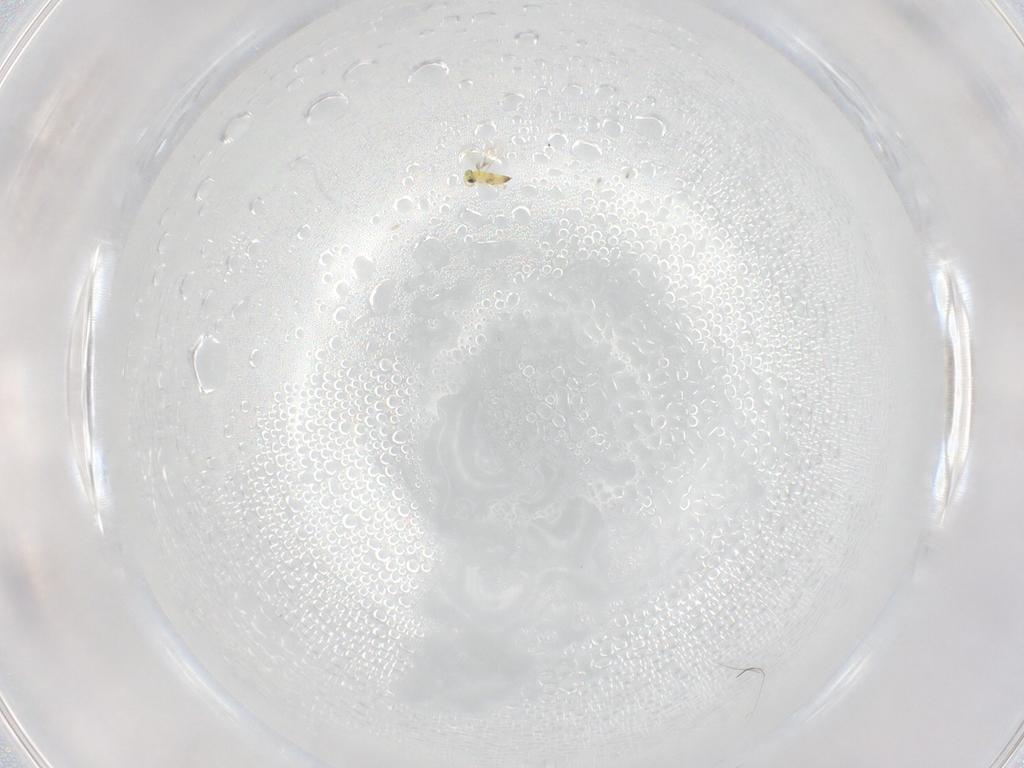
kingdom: Animalia
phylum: Arthropoda
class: Insecta
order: Hymenoptera
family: Eulophidae
